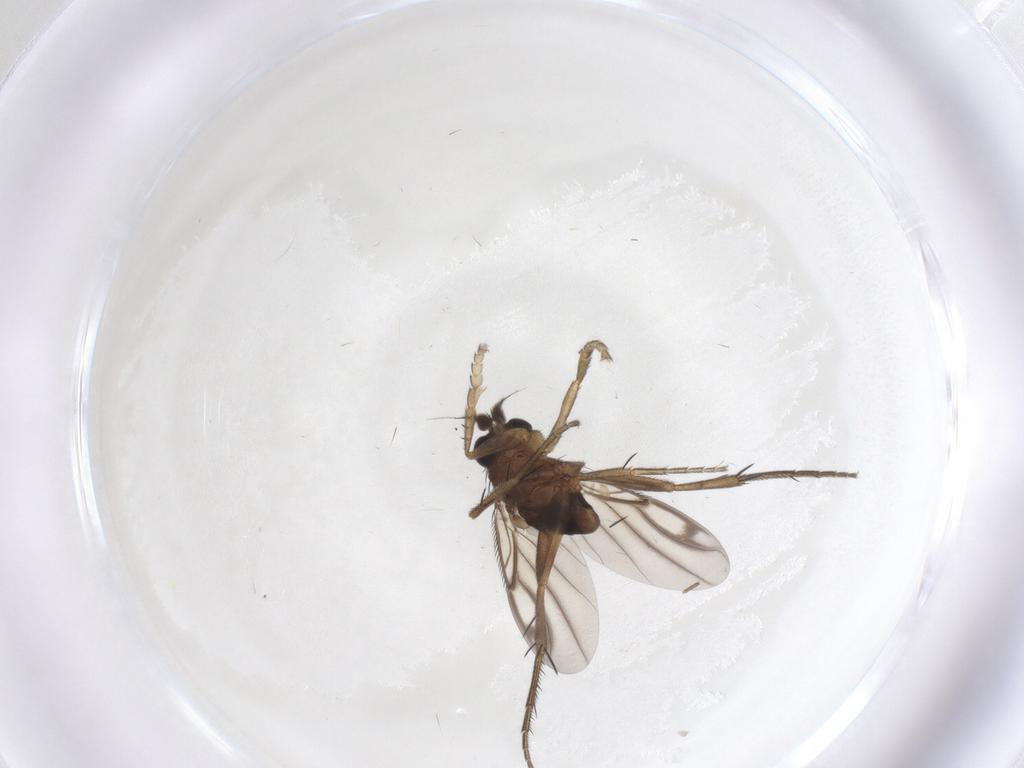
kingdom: Animalia
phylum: Arthropoda
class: Insecta
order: Diptera
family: Phoridae
